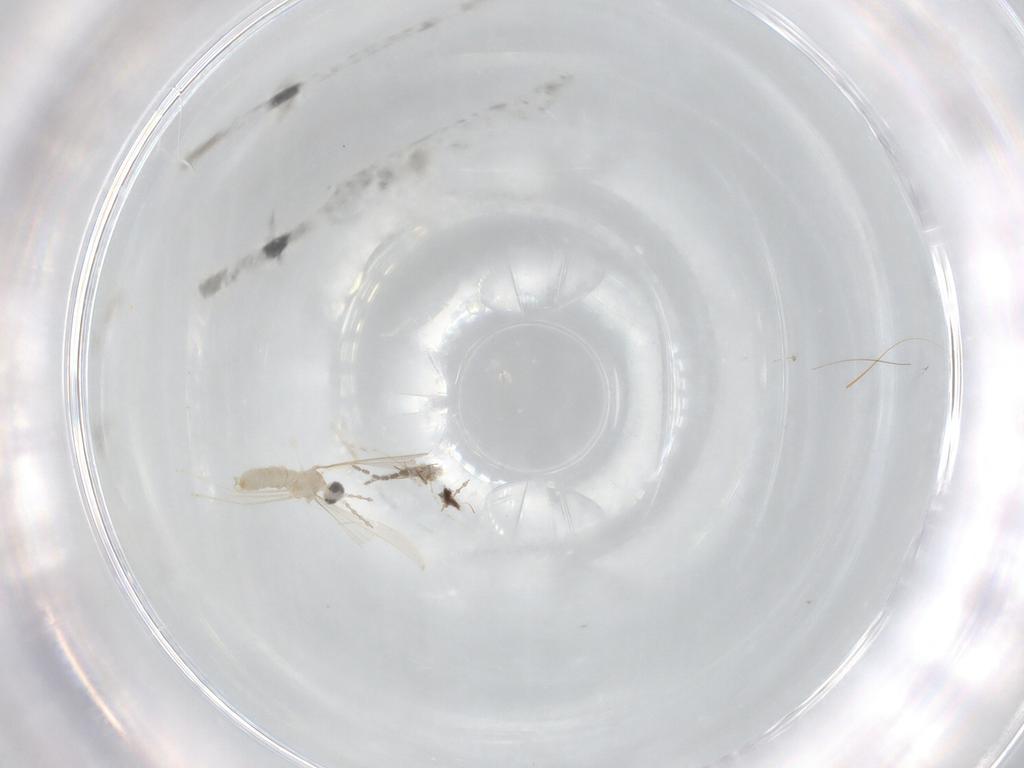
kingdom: Animalia
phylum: Arthropoda
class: Insecta
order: Diptera
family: Cecidomyiidae
